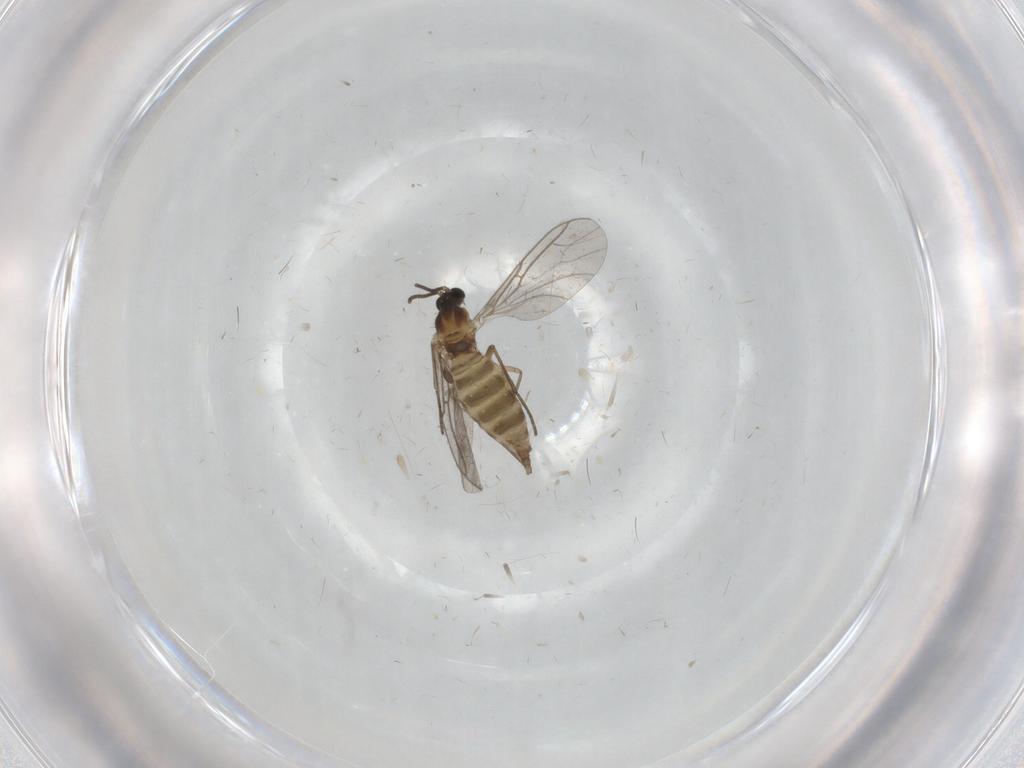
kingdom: Animalia
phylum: Arthropoda
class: Insecta
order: Diptera
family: Sciaridae
